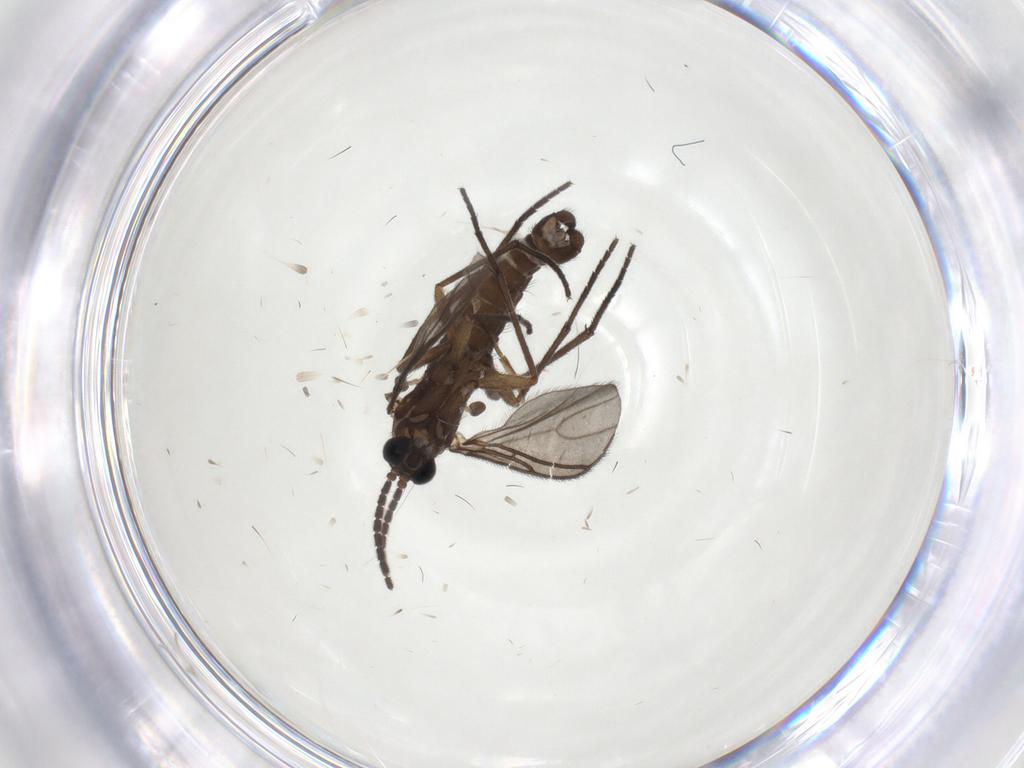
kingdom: Animalia
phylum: Arthropoda
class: Insecta
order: Diptera
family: Sciaridae
